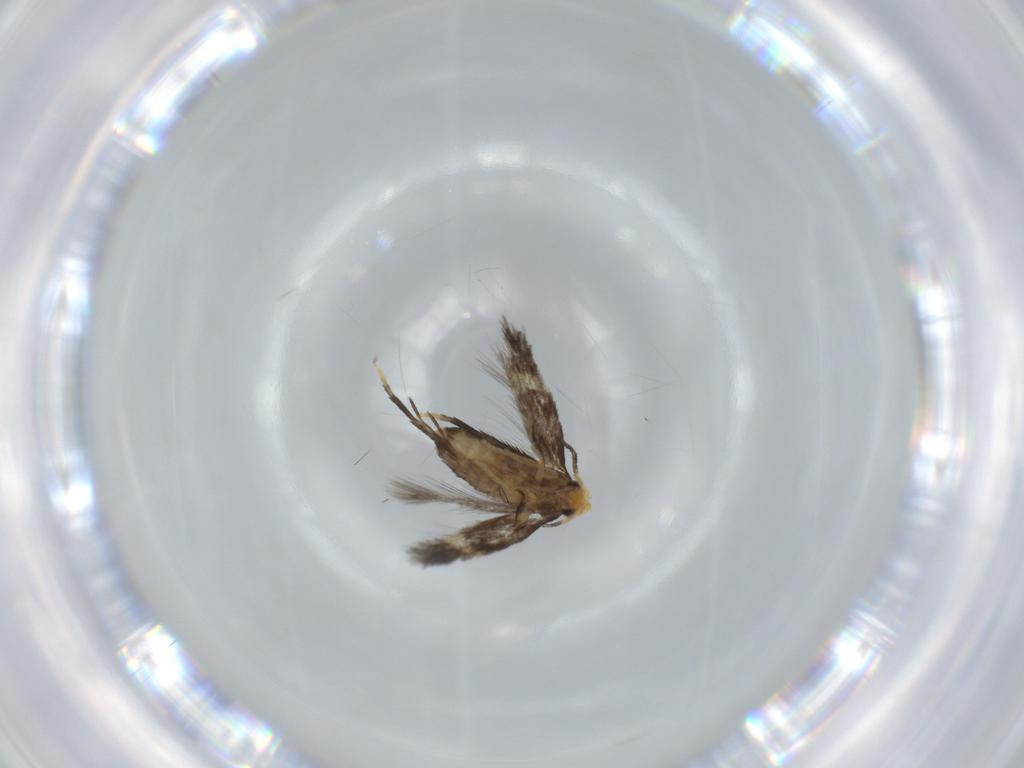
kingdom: Animalia
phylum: Arthropoda
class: Insecta
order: Lepidoptera
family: Nepticulidae
